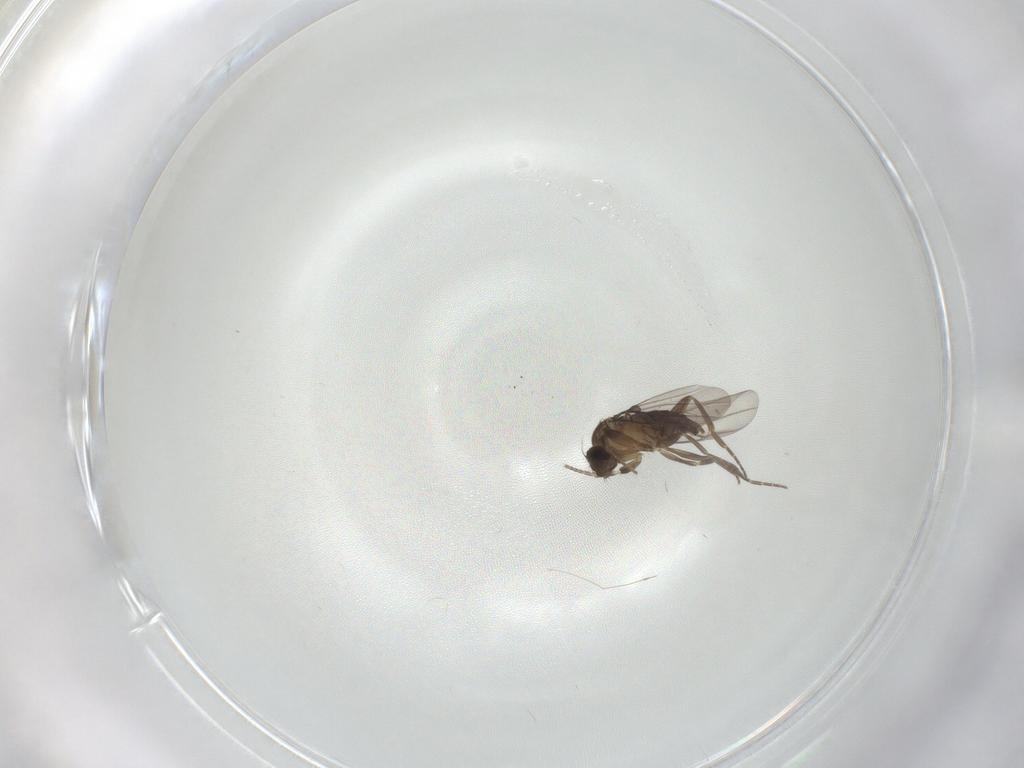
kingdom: Animalia
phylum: Arthropoda
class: Insecta
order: Diptera
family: Phoridae
